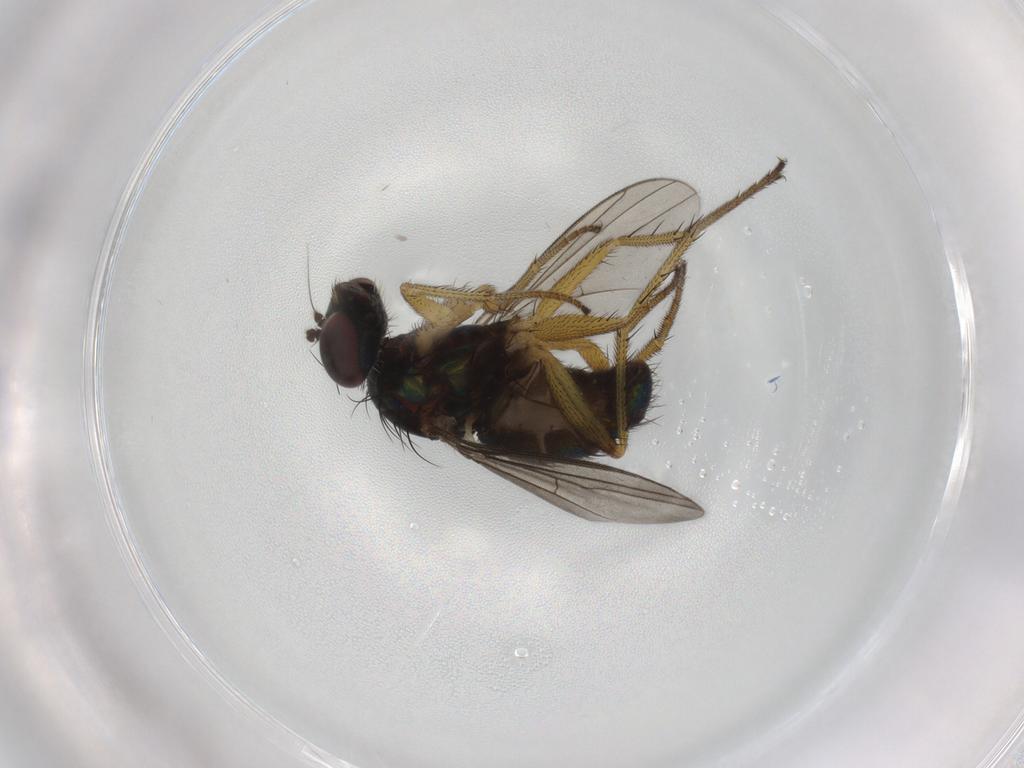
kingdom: Animalia
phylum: Arthropoda
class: Insecta
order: Diptera
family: Dolichopodidae
